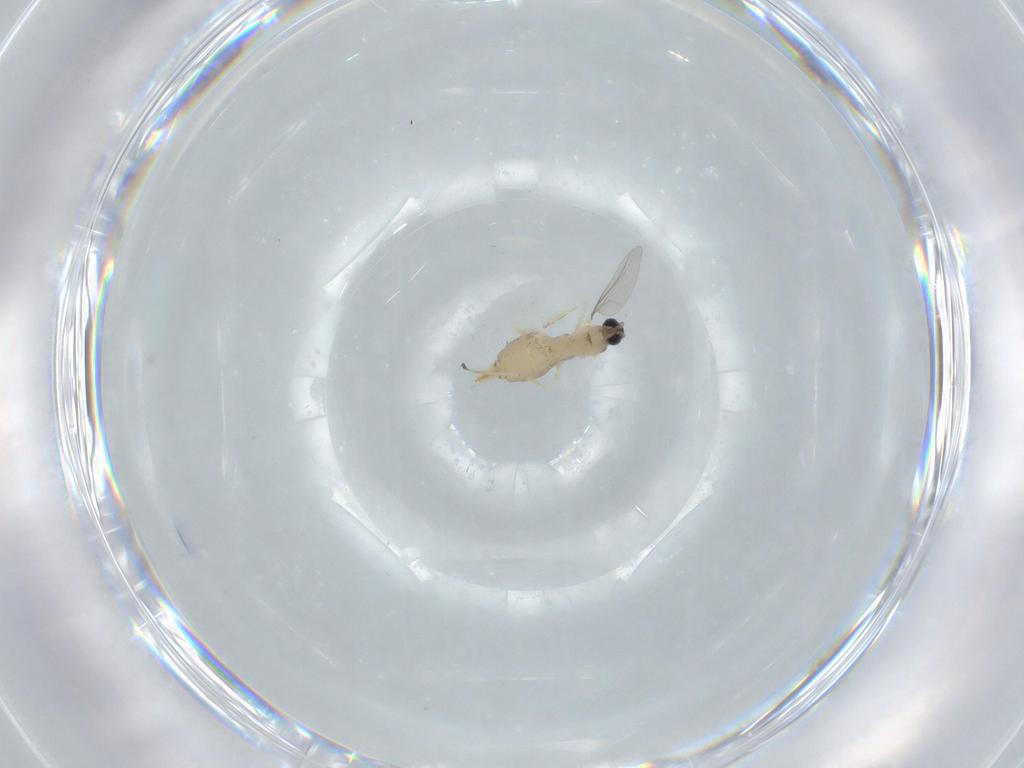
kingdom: Animalia
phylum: Arthropoda
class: Insecta
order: Diptera
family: Cecidomyiidae
